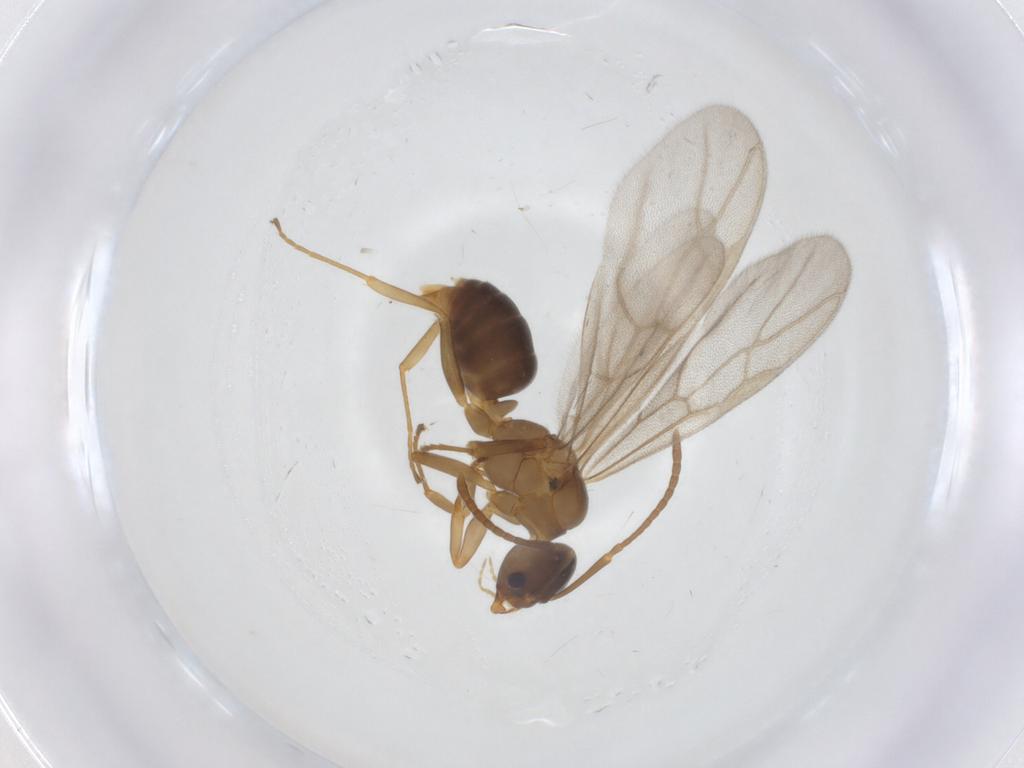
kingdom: Animalia
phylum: Arthropoda
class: Insecta
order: Hymenoptera
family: Formicidae
